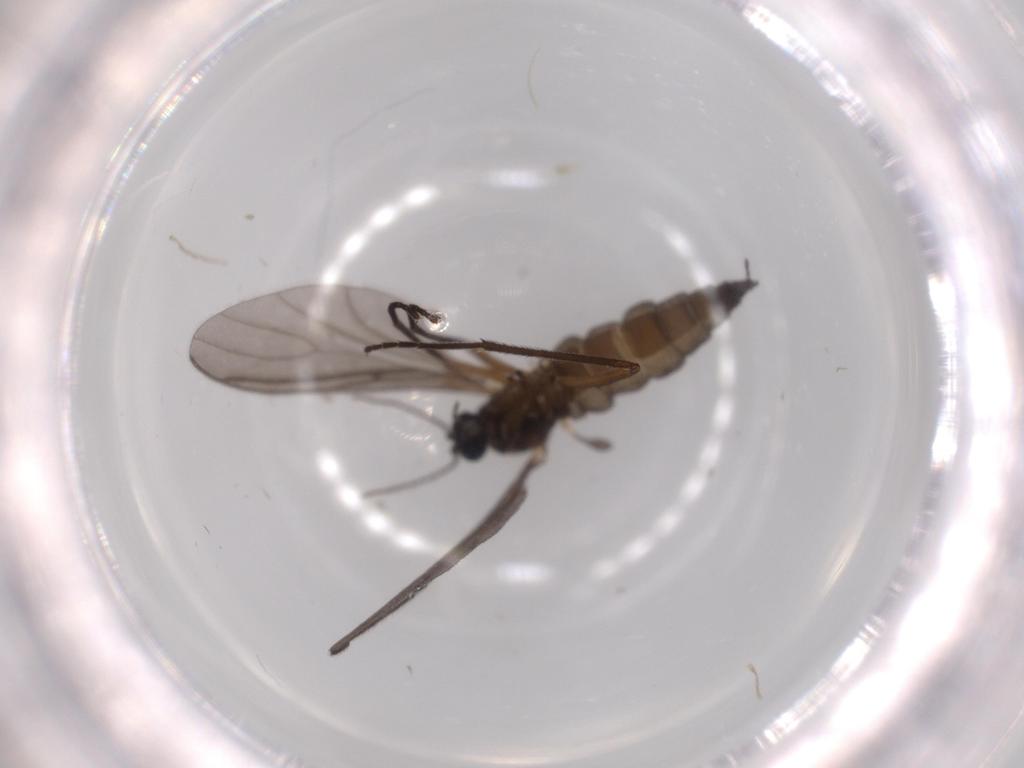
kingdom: Animalia
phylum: Arthropoda
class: Insecta
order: Diptera
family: Sciaridae
